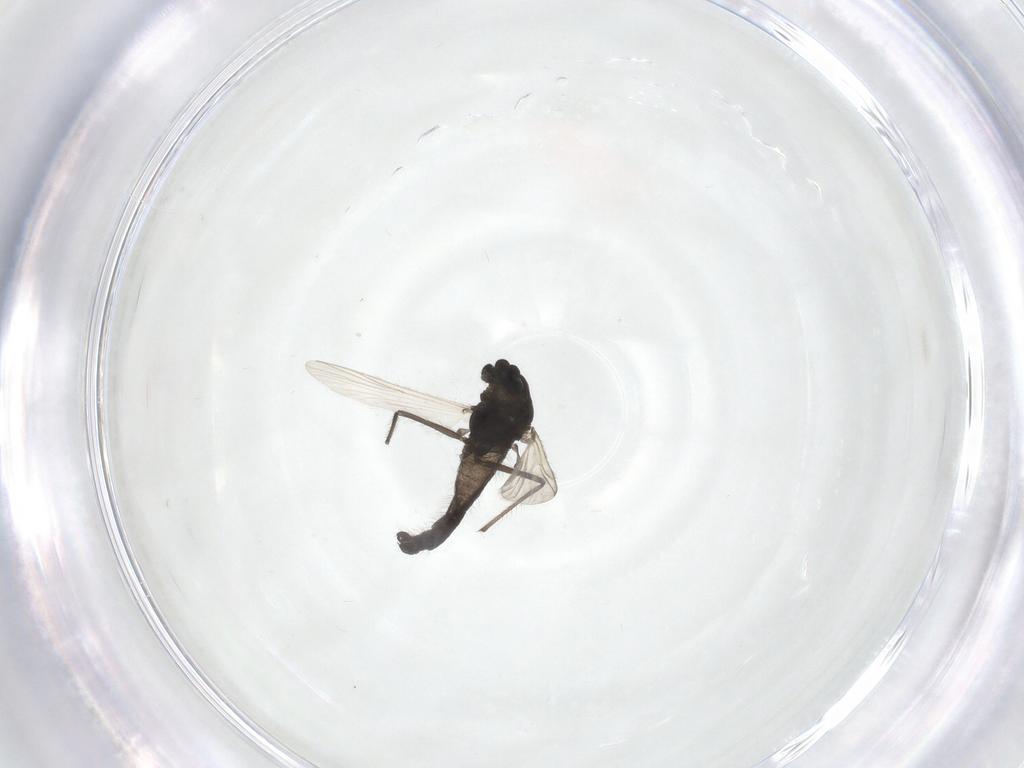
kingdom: Animalia
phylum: Arthropoda
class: Insecta
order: Diptera
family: Chironomidae
